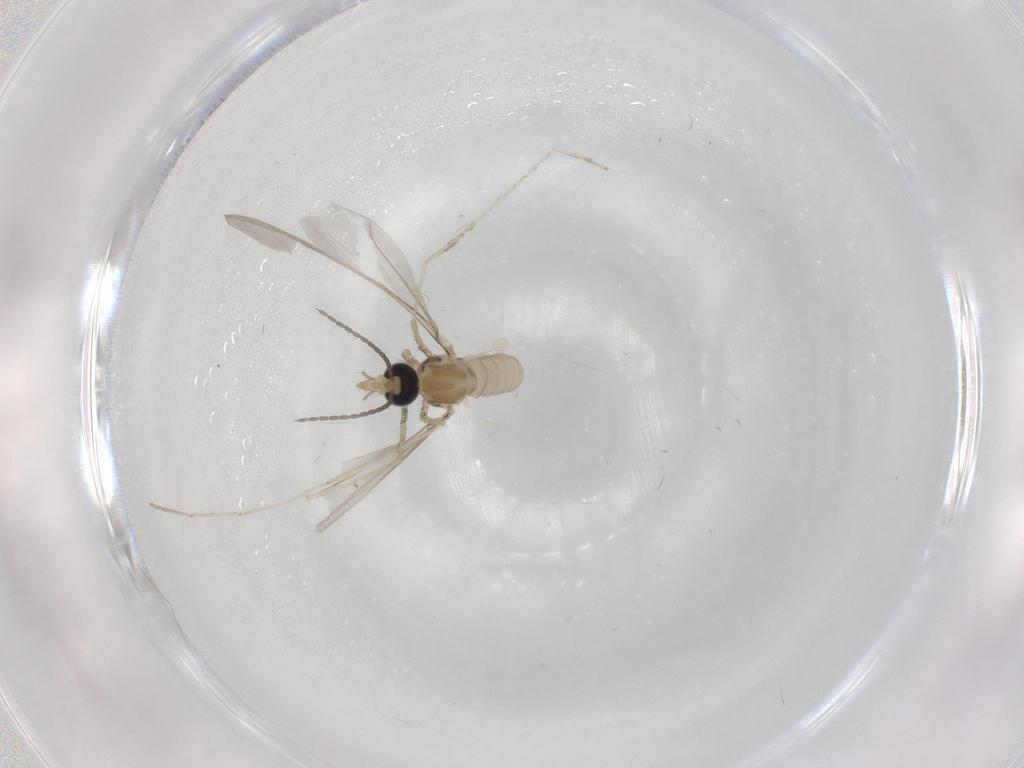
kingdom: Animalia
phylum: Arthropoda
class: Insecta
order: Diptera
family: Cecidomyiidae
